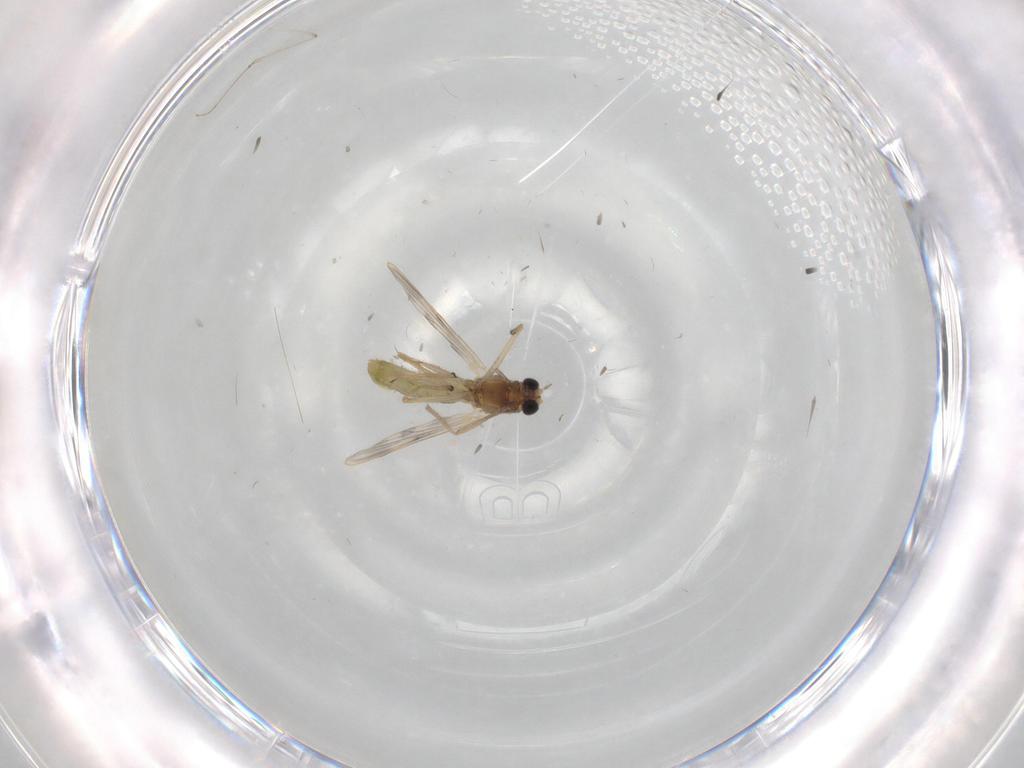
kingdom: Animalia
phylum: Arthropoda
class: Insecta
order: Diptera
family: Chironomidae
